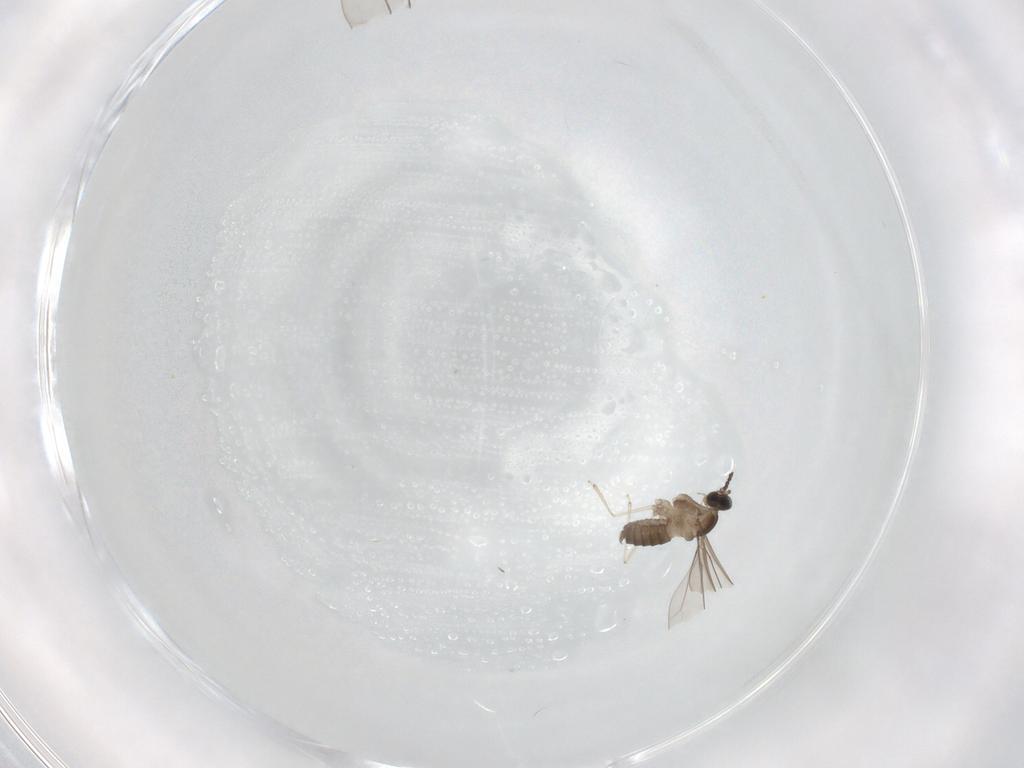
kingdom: Animalia
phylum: Arthropoda
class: Insecta
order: Diptera
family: Cecidomyiidae
